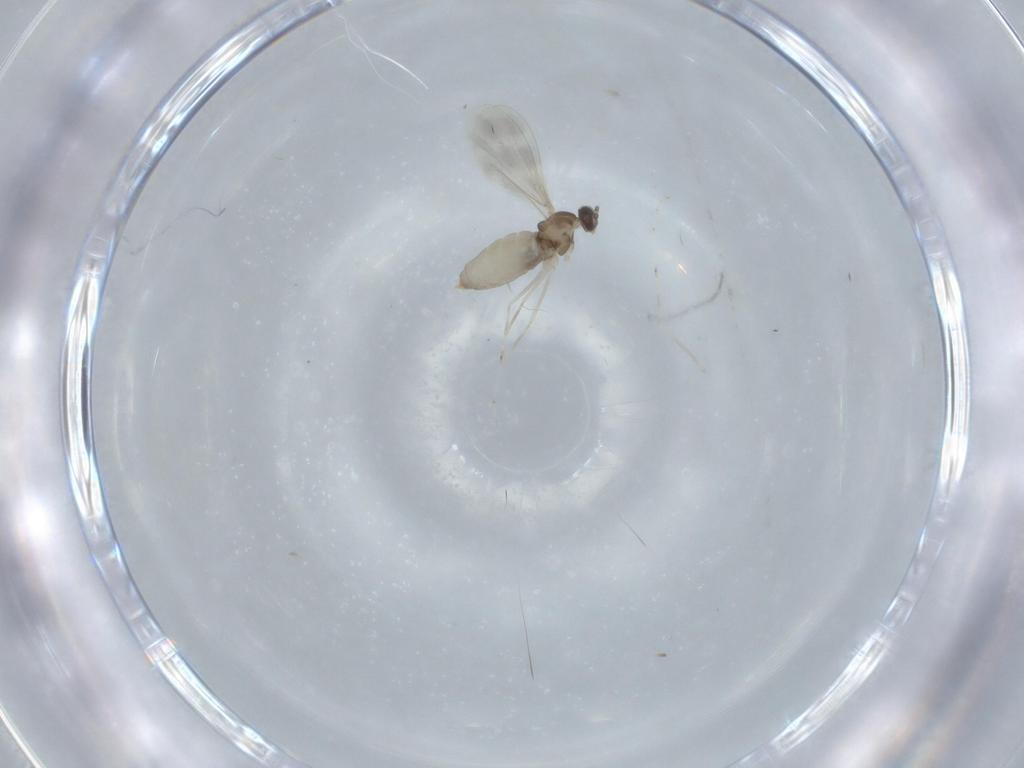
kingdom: Animalia
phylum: Arthropoda
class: Insecta
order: Diptera
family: Cecidomyiidae
